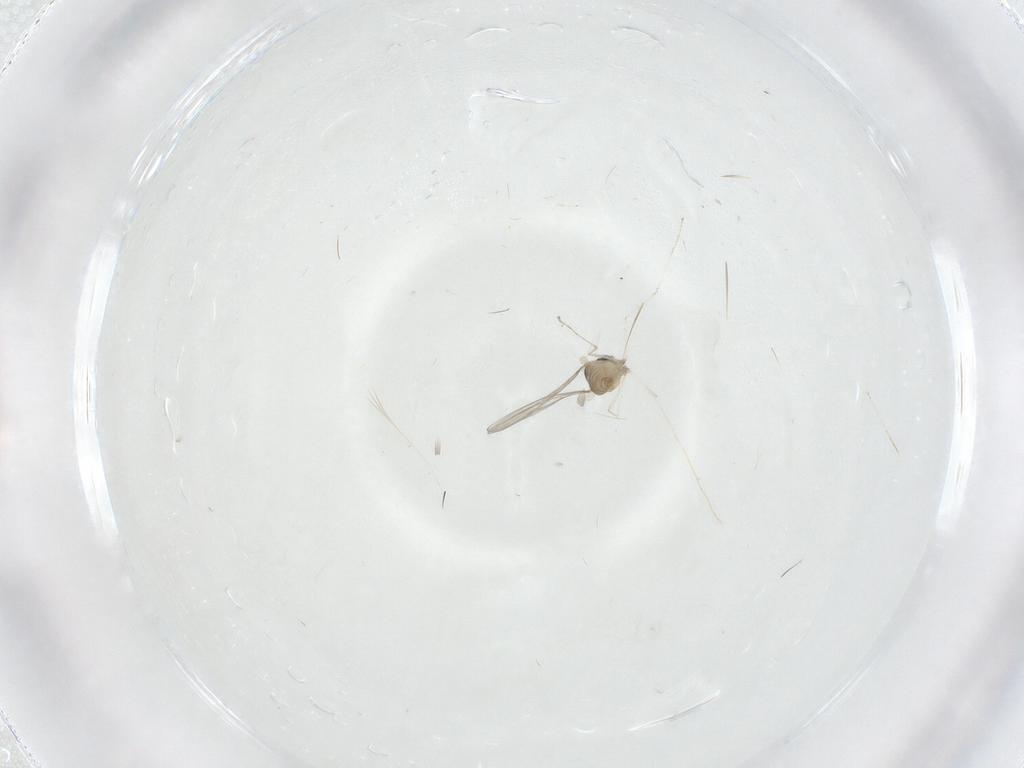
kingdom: Animalia
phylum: Arthropoda
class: Insecta
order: Diptera
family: Cecidomyiidae
